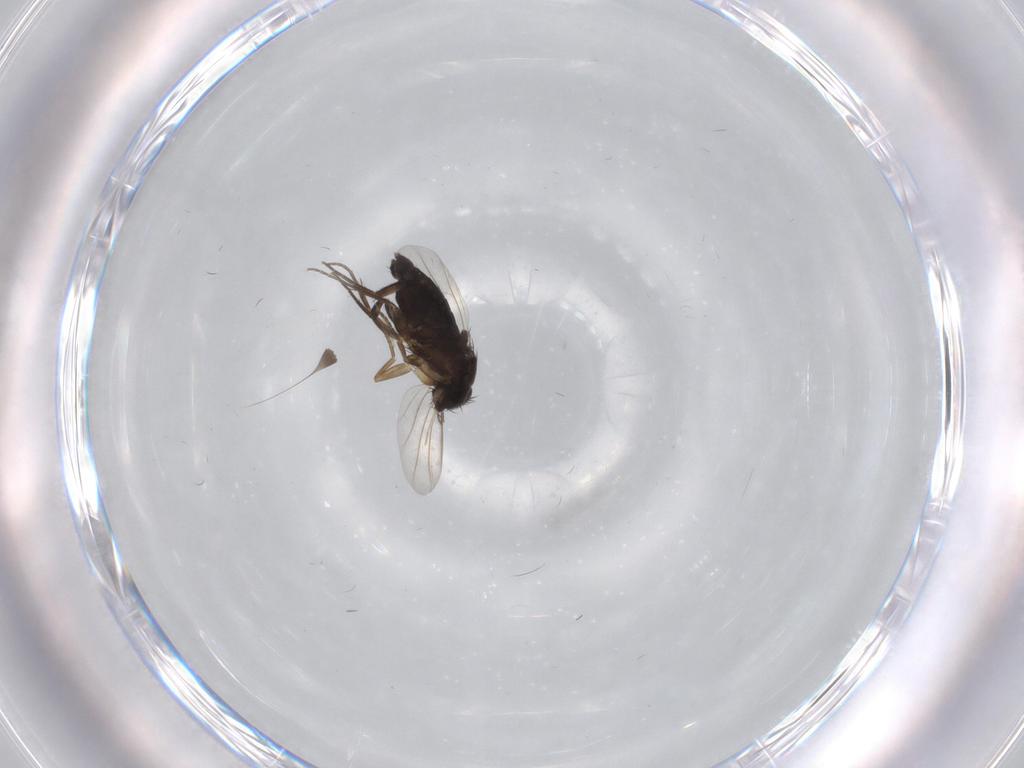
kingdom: Animalia
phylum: Arthropoda
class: Insecta
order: Diptera
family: Phoridae
